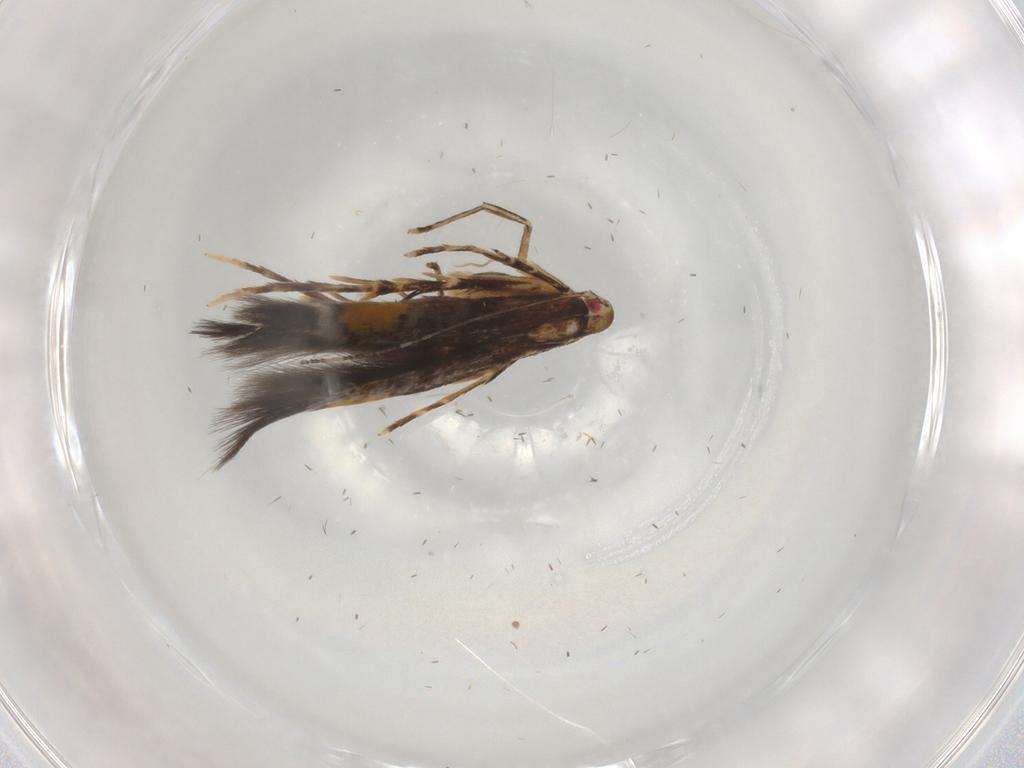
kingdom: Animalia
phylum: Arthropoda
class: Insecta
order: Lepidoptera
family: Cosmopterigidae
